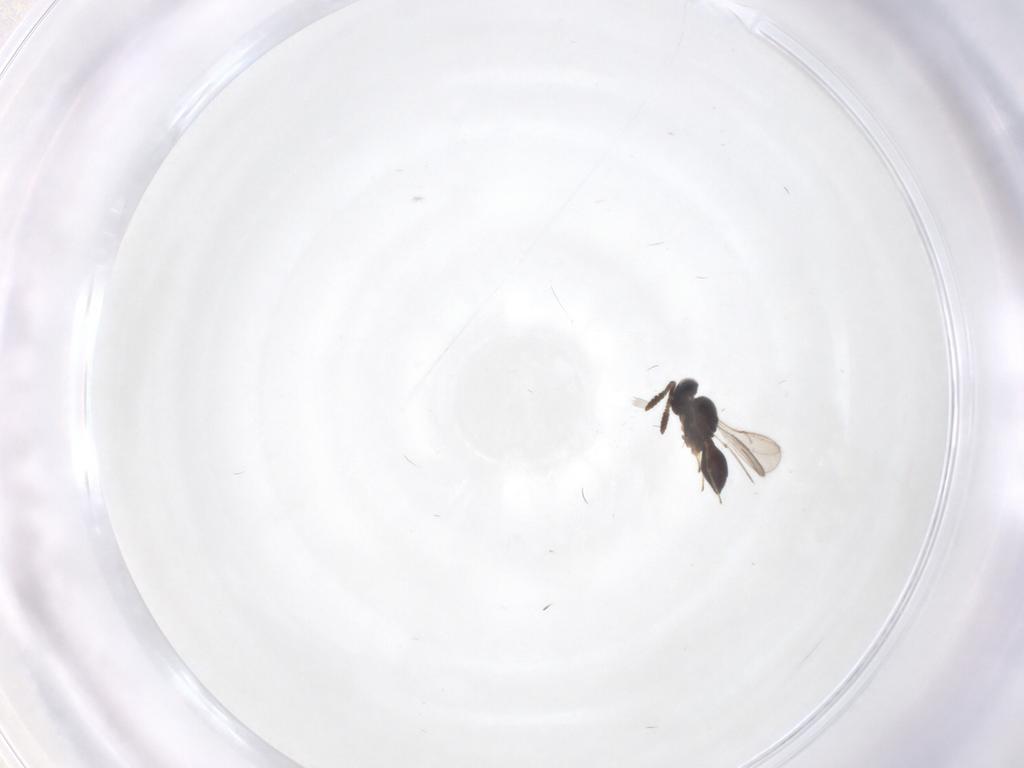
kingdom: Animalia
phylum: Arthropoda
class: Insecta
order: Hymenoptera
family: Scelionidae
